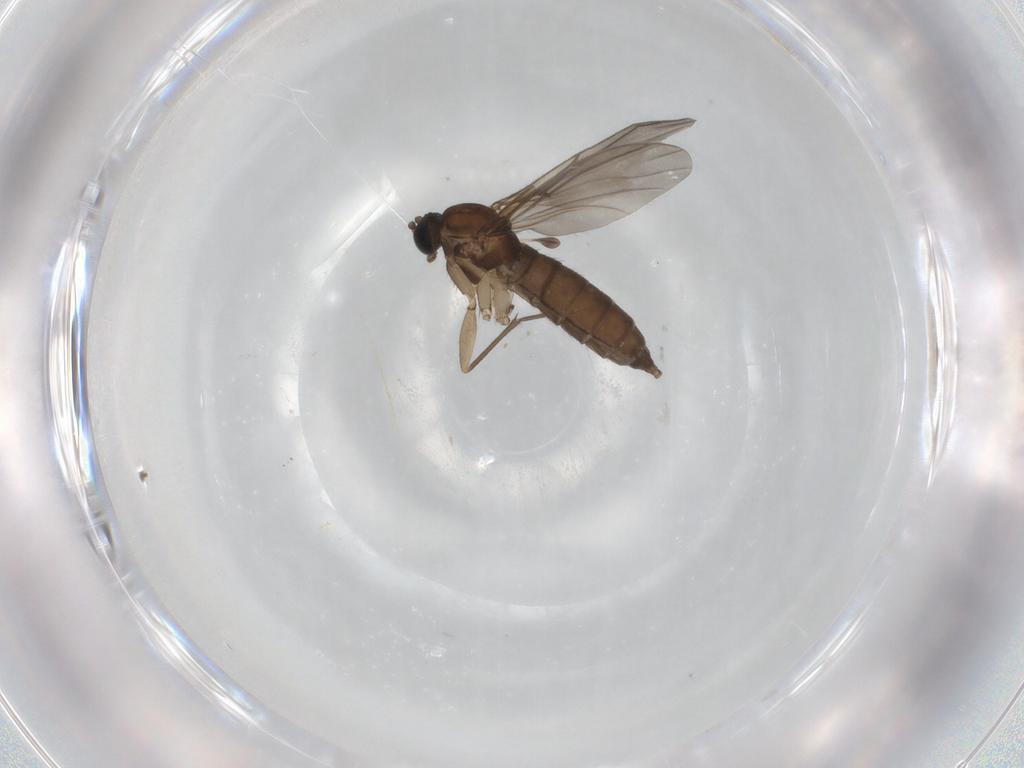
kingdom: Animalia
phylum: Arthropoda
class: Insecta
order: Diptera
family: Sciaridae
